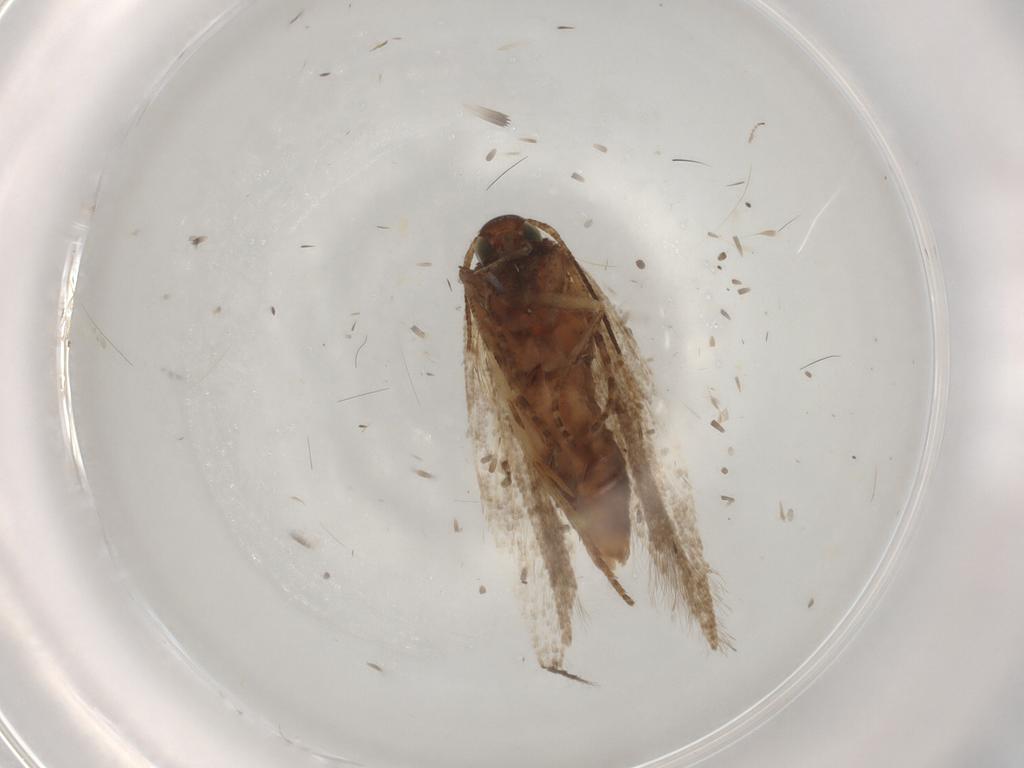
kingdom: Animalia
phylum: Arthropoda
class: Insecta
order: Lepidoptera
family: Gelechiidae
